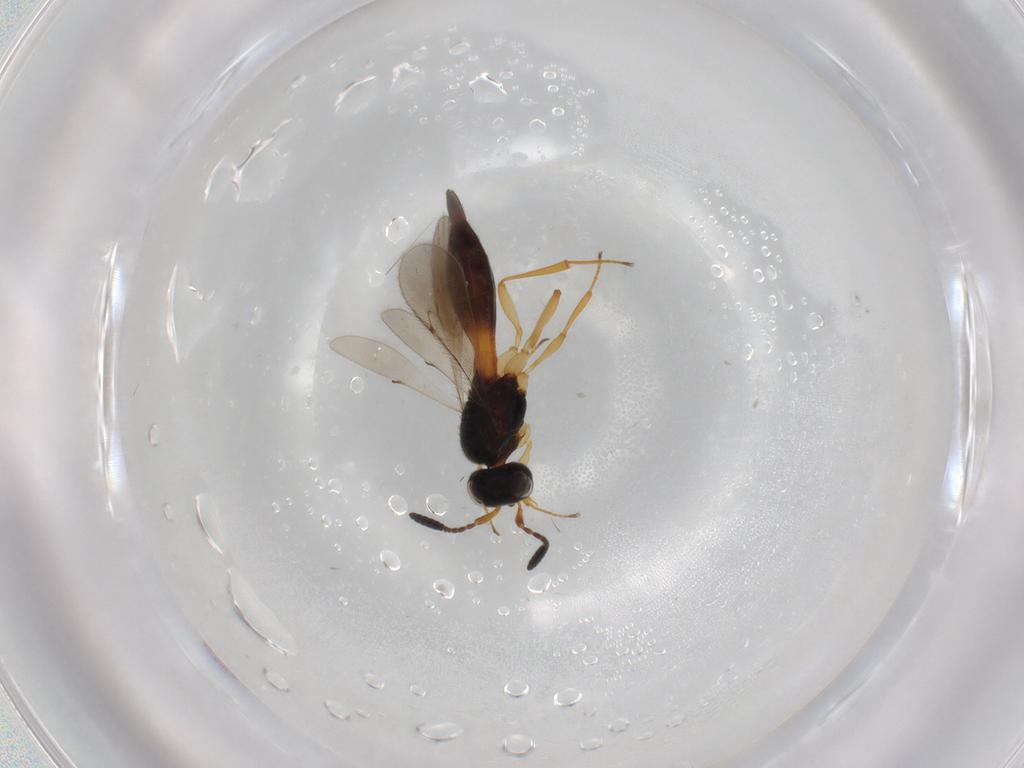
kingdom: Animalia
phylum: Arthropoda
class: Insecta
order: Hymenoptera
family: Scelionidae
